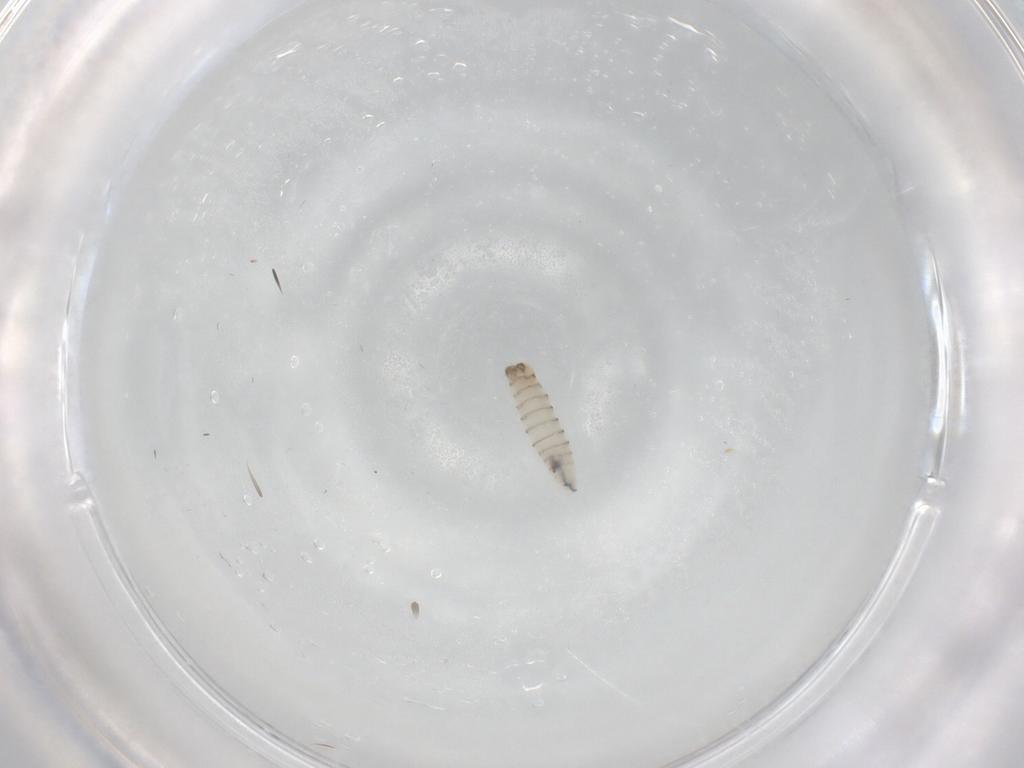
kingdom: Animalia
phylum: Arthropoda
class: Insecta
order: Diptera
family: Sarcophagidae
